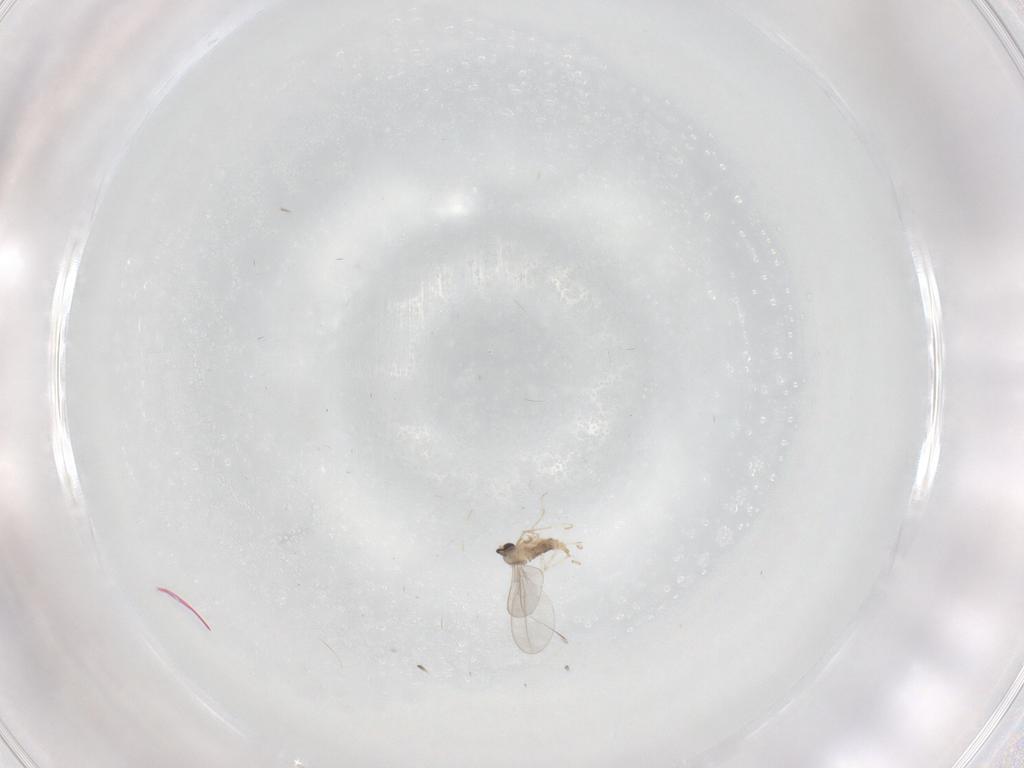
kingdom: Animalia
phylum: Arthropoda
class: Insecta
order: Diptera
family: Cecidomyiidae
